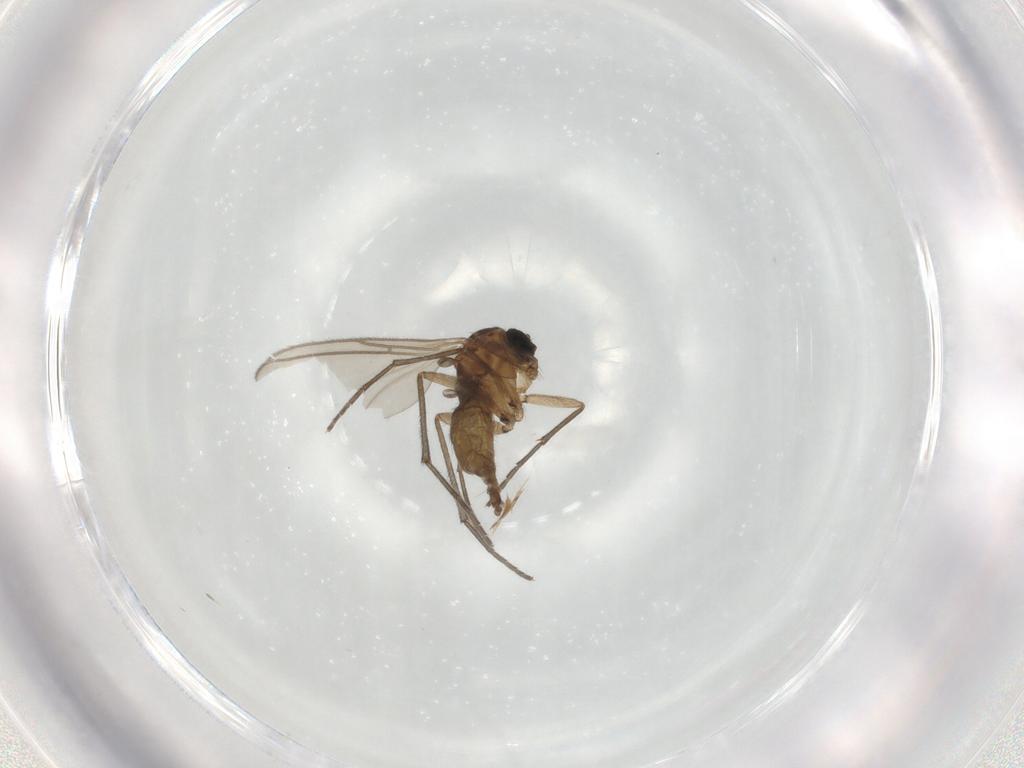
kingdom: Animalia
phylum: Arthropoda
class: Insecta
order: Diptera
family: Sciaridae
